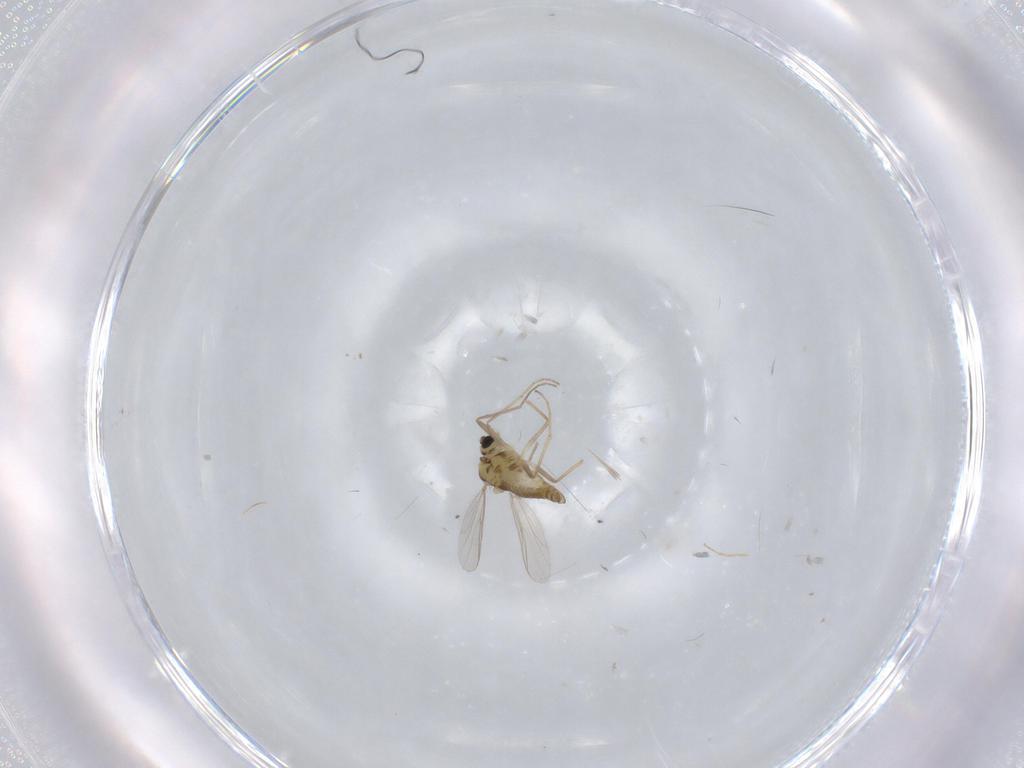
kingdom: Animalia
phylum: Arthropoda
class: Insecta
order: Diptera
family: Chironomidae
